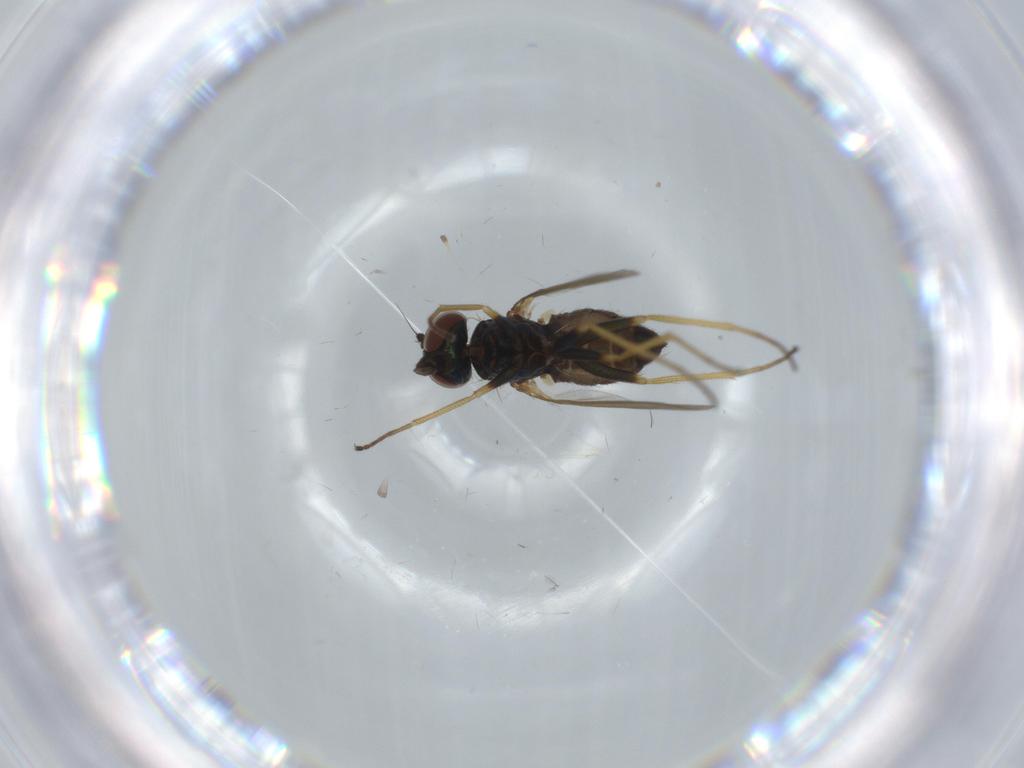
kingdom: Animalia
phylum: Arthropoda
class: Insecta
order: Diptera
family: Dolichopodidae
